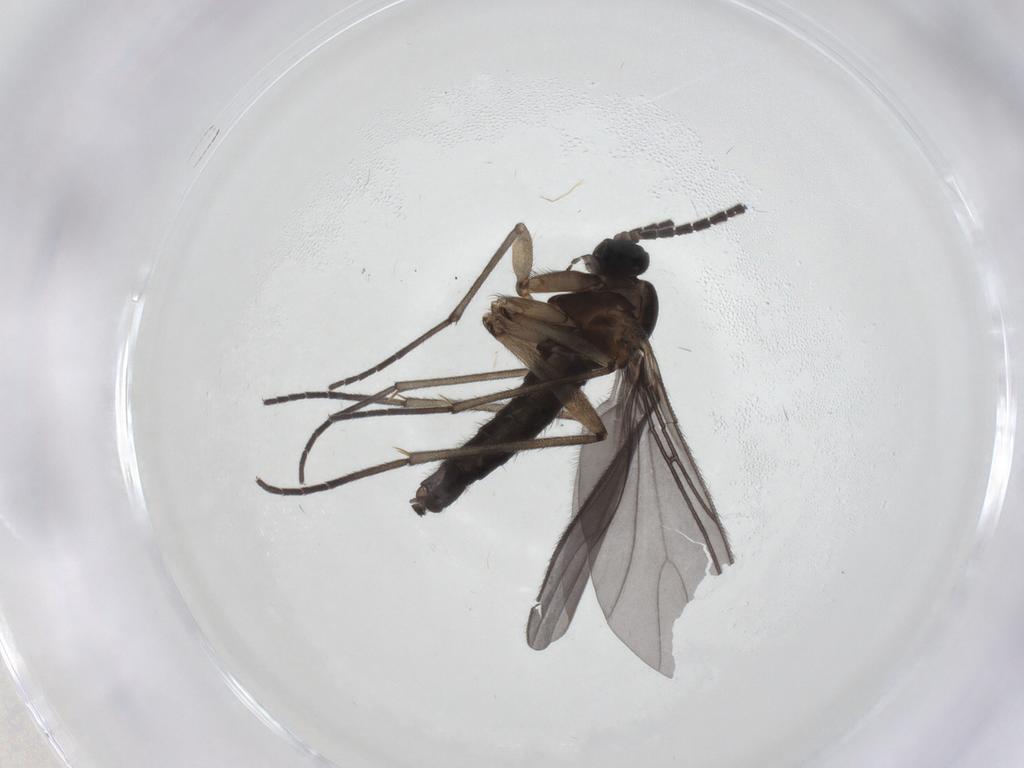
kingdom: Animalia
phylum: Arthropoda
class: Insecta
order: Diptera
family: Sciaridae
